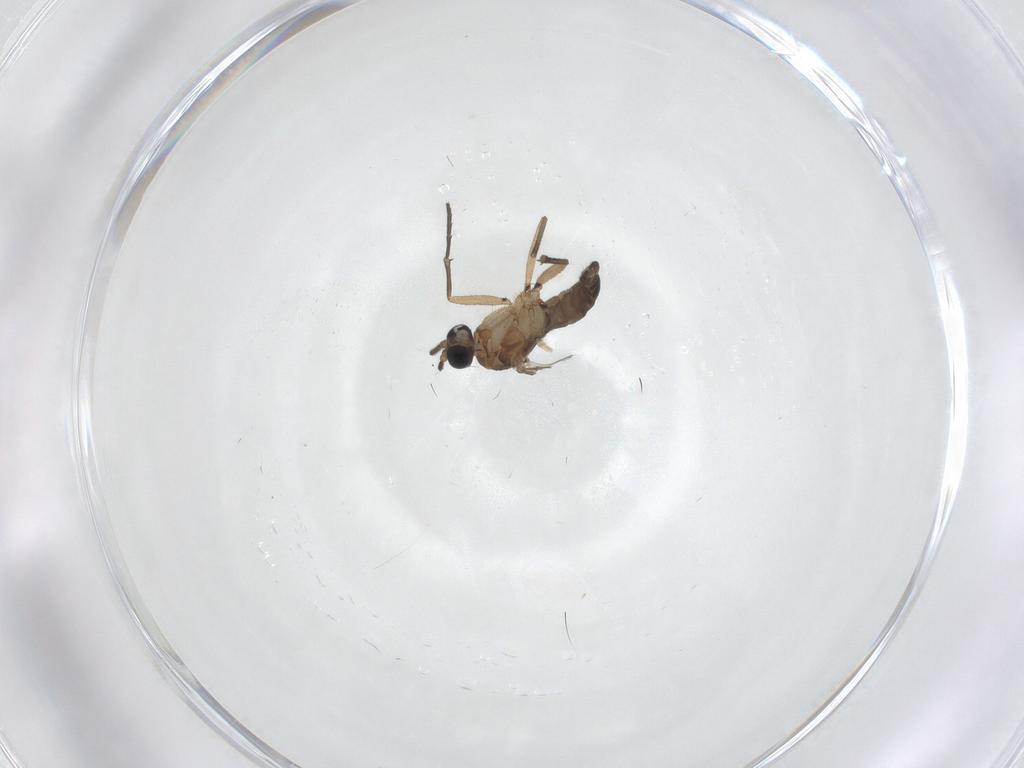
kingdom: Animalia
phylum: Arthropoda
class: Insecta
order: Diptera
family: Sciaridae
